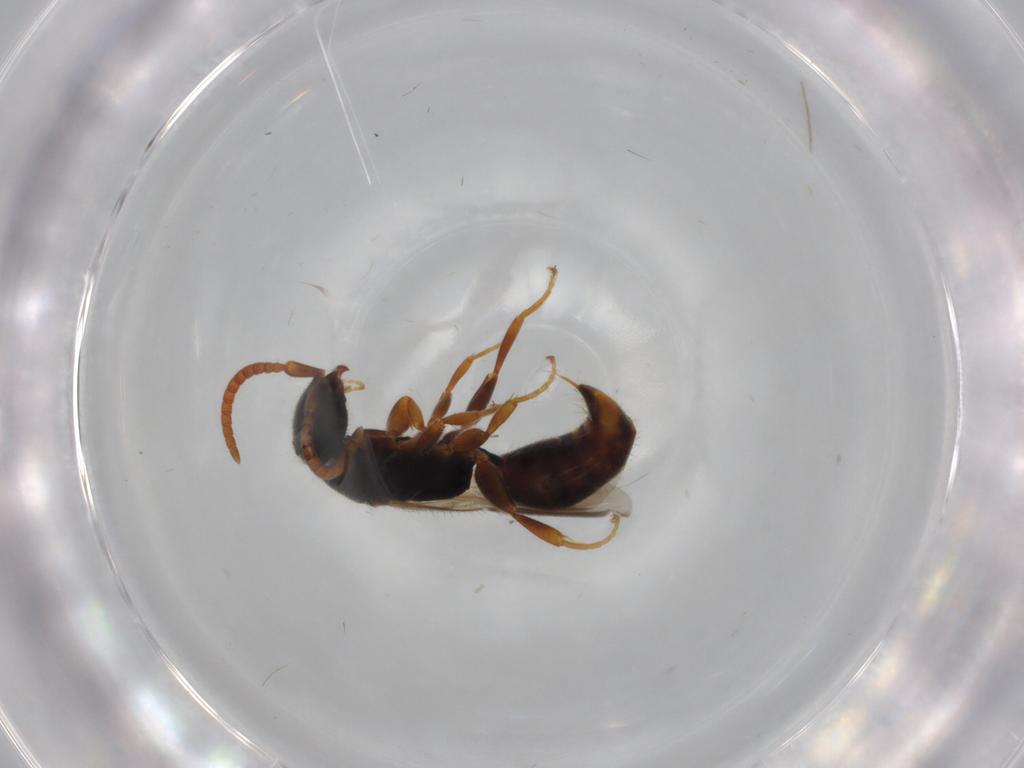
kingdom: Animalia
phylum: Arthropoda
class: Insecta
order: Hymenoptera
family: Bethylidae
